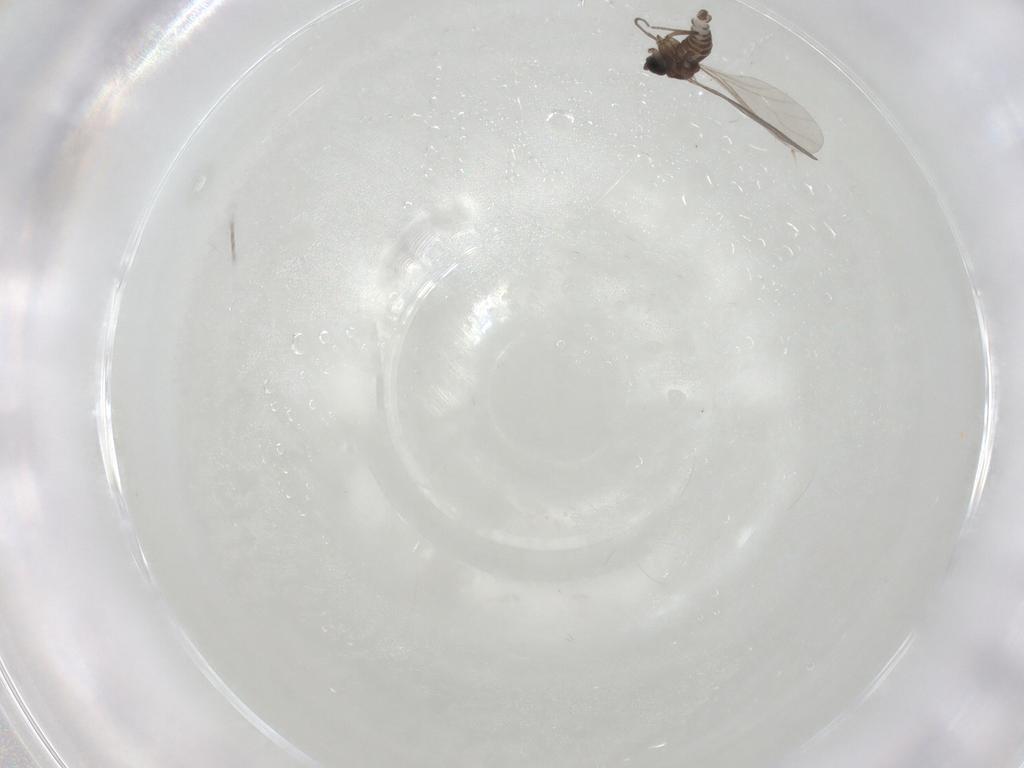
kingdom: Animalia
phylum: Arthropoda
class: Insecta
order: Diptera
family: Sciaridae
